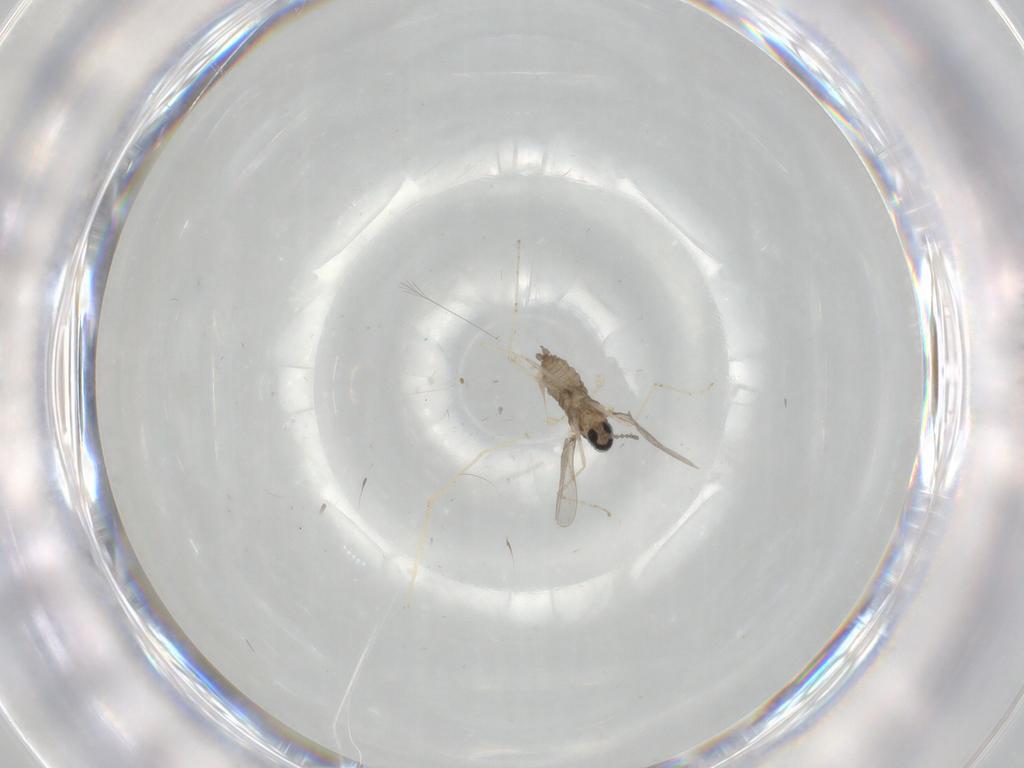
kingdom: Animalia
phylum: Arthropoda
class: Insecta
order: Diptera
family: Cecidomyiidae
